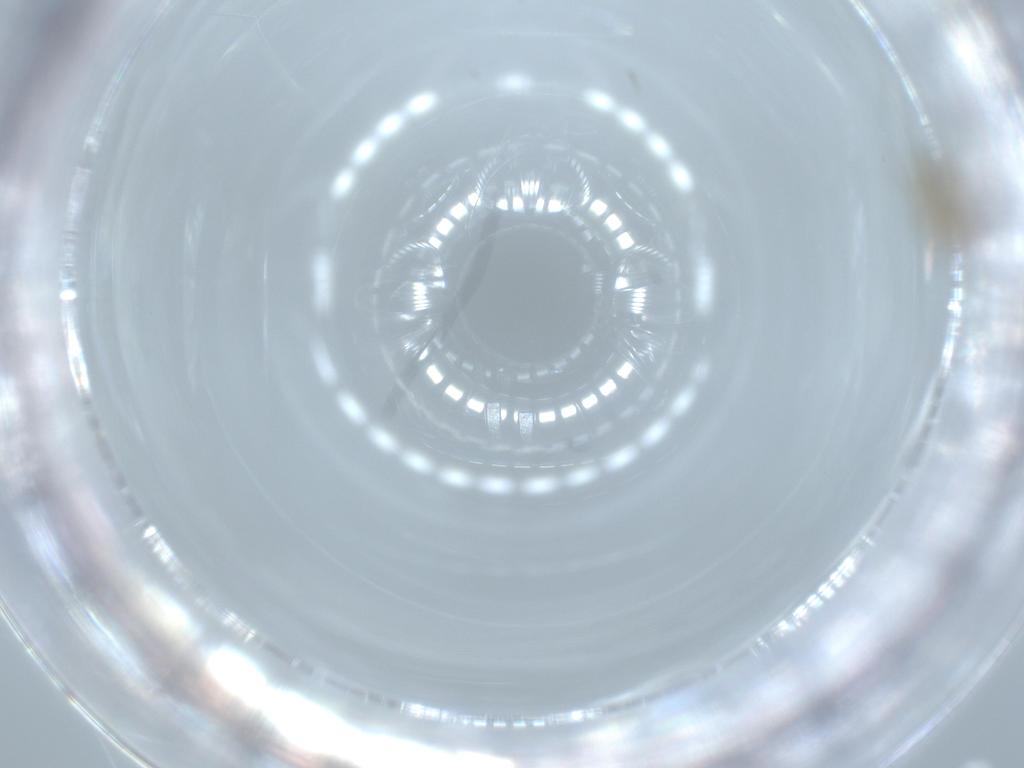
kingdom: Animalia
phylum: Arthropoda
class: Insecta
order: Diptera
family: Cecidomyiidae
